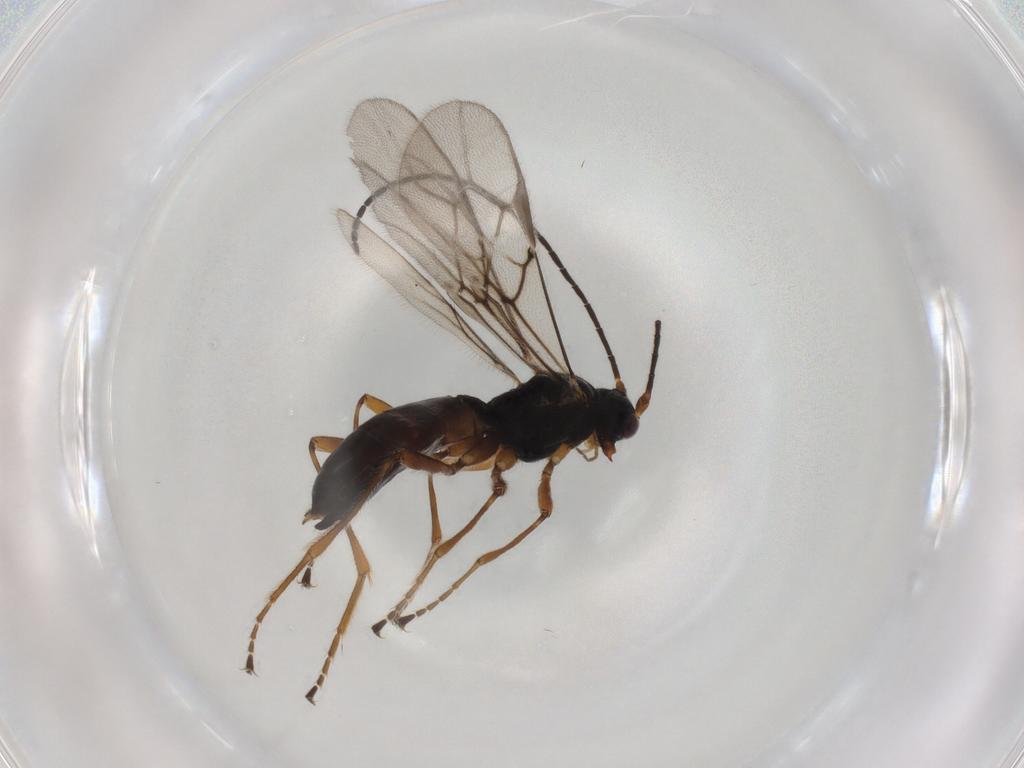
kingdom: Animalia
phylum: Arthropoda
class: Insecta
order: Hymenoptera
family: Braconidae
